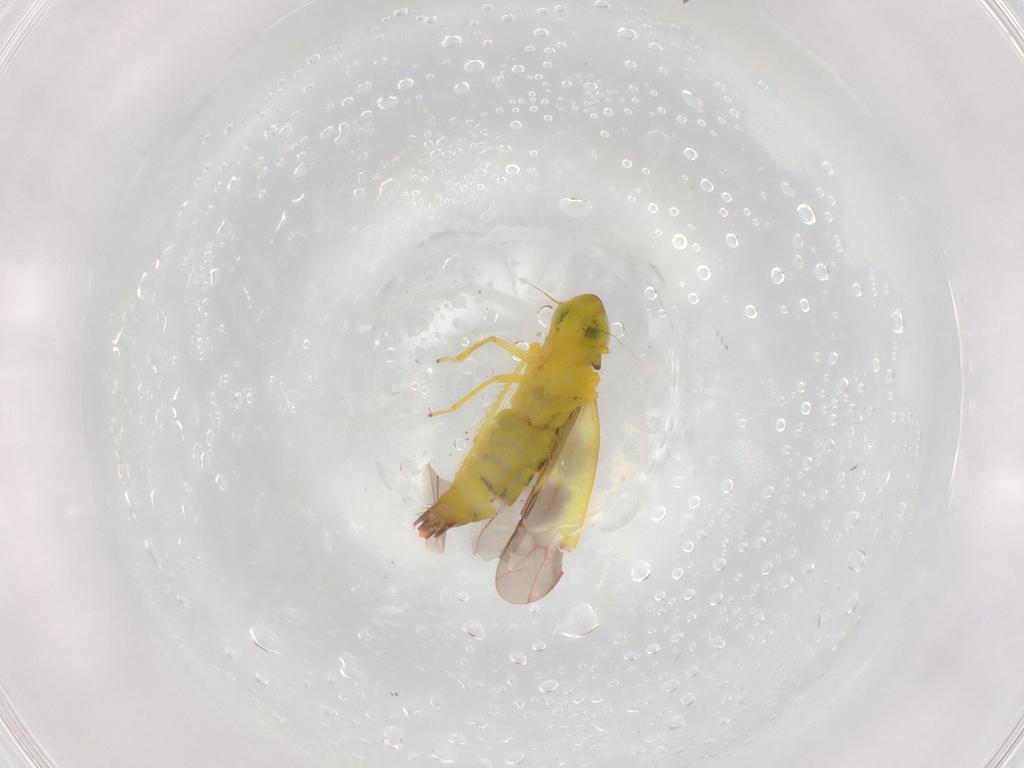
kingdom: Animalia
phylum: Arthropoda
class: Insecta
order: Hemiptera
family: Cicadellidae
